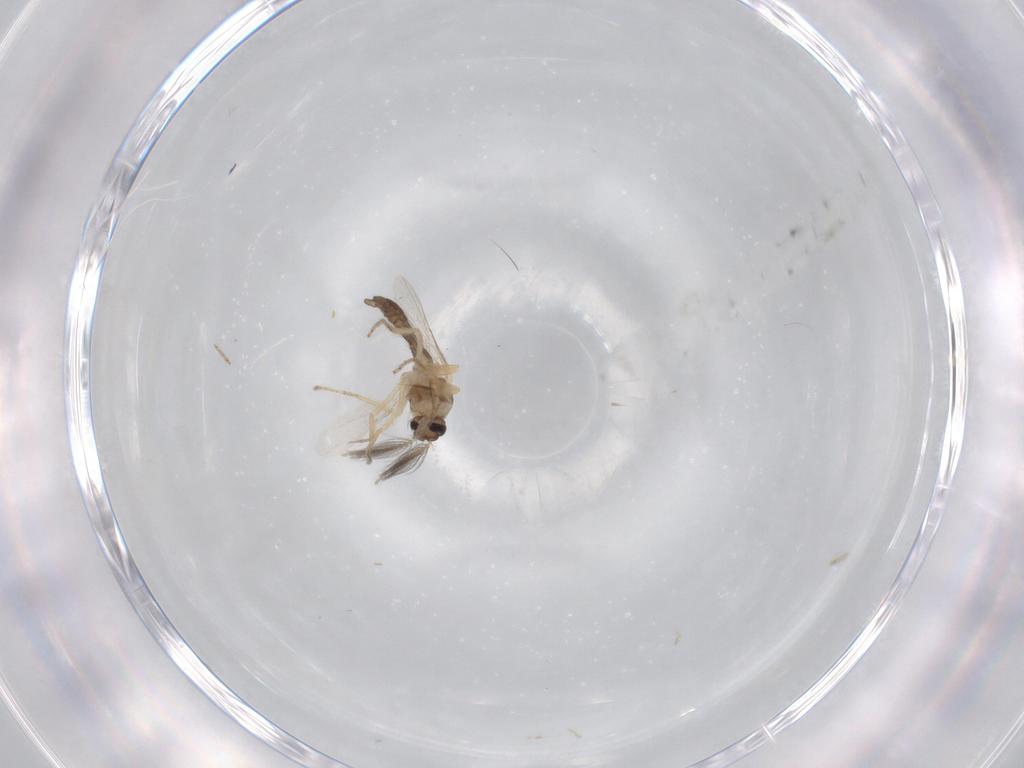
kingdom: Animalia
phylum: Arthropoda
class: Insecta
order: Diptera
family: Ceratopogonidae
